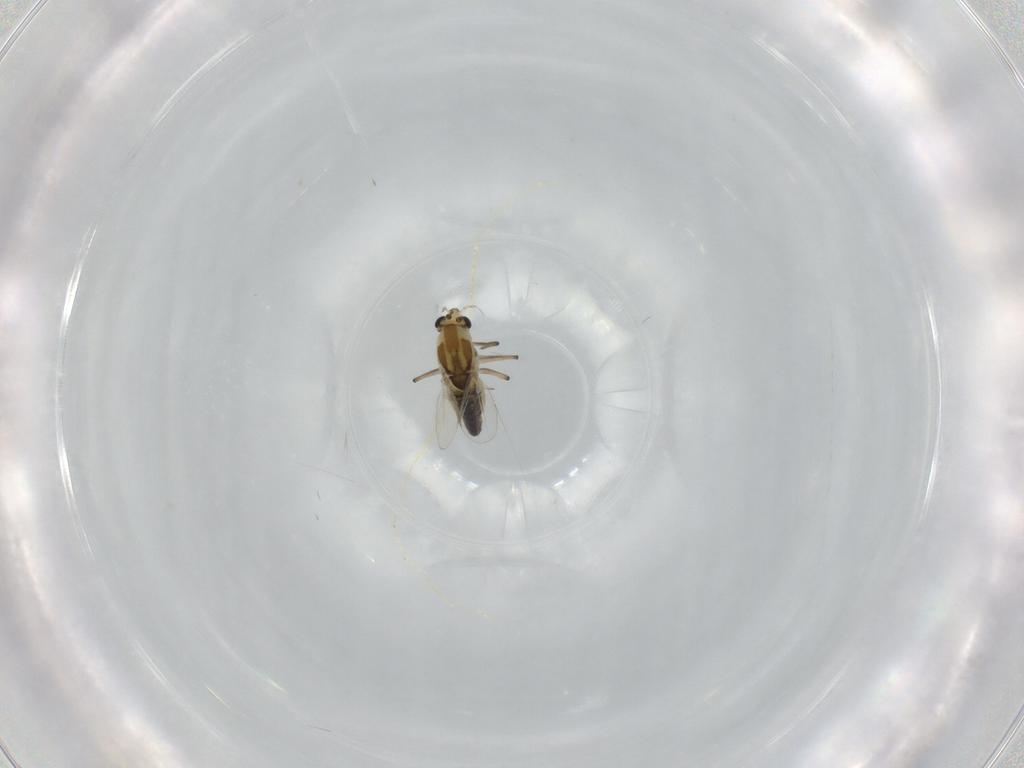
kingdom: Animalia
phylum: Arthropoda
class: Insecta
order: Diptera
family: Chironomidae
